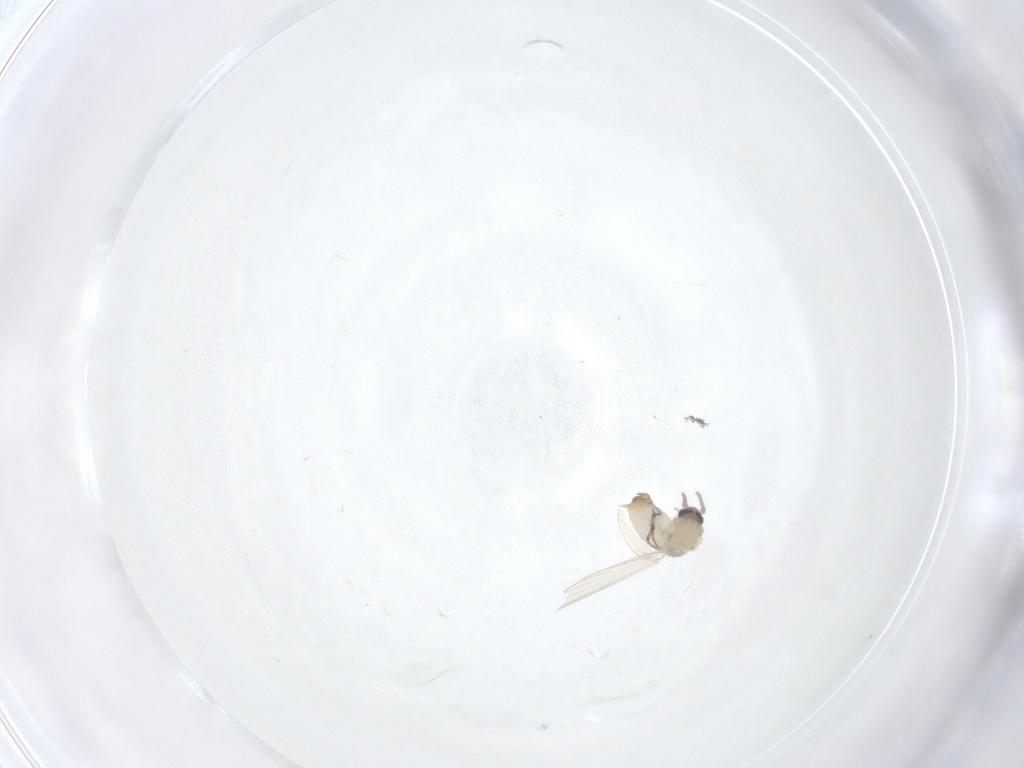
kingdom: Animalia
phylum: Arthropoda
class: Insecta
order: Diptera
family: Psychodidae
